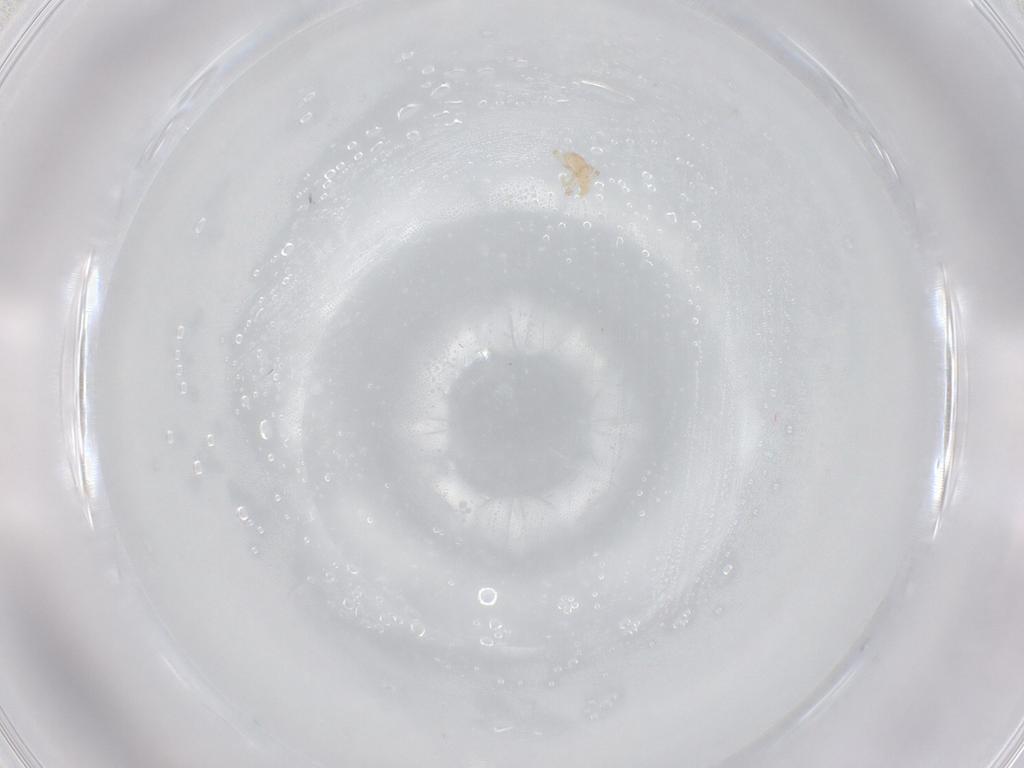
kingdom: Animalia
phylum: Arthropoda
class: Arachnida
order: Trombidiformes
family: Erythraeidae
